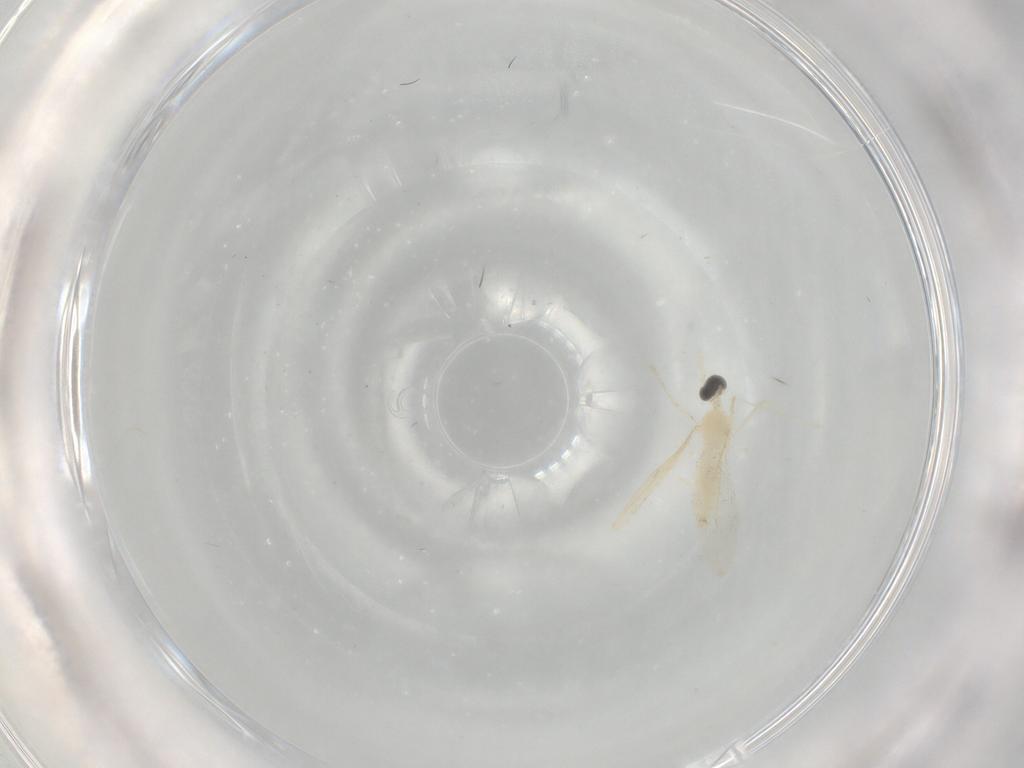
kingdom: Animalia
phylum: Arthropoda
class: Insecta
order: Diptera
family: Cecidomyiidae
